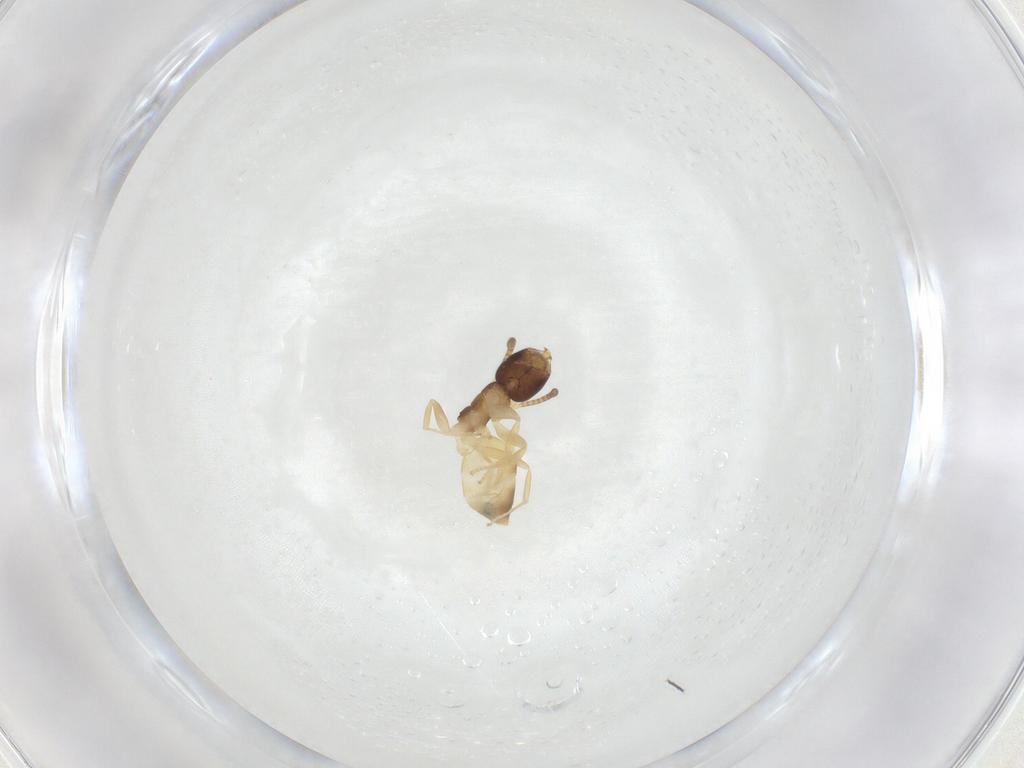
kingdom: Animalia
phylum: Arthropoda
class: Insecta
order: Hymenoptera
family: Formicidae
